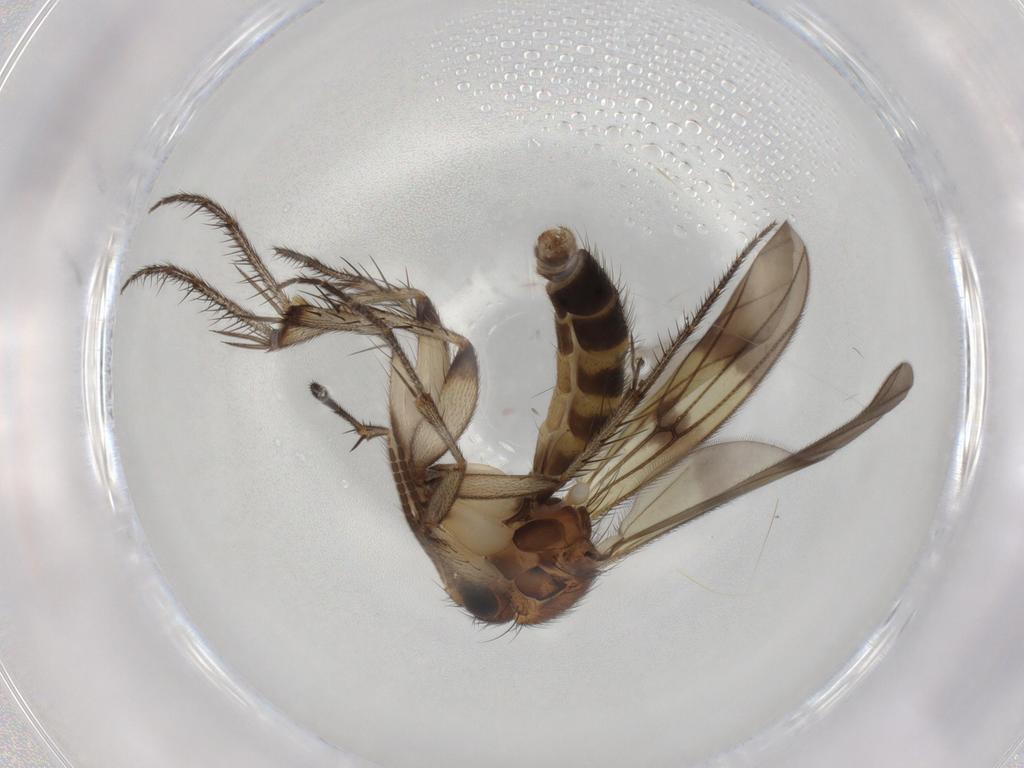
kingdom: Animalia
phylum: Arthropoda
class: Insecta
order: Diptera
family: Mycetophilidae
